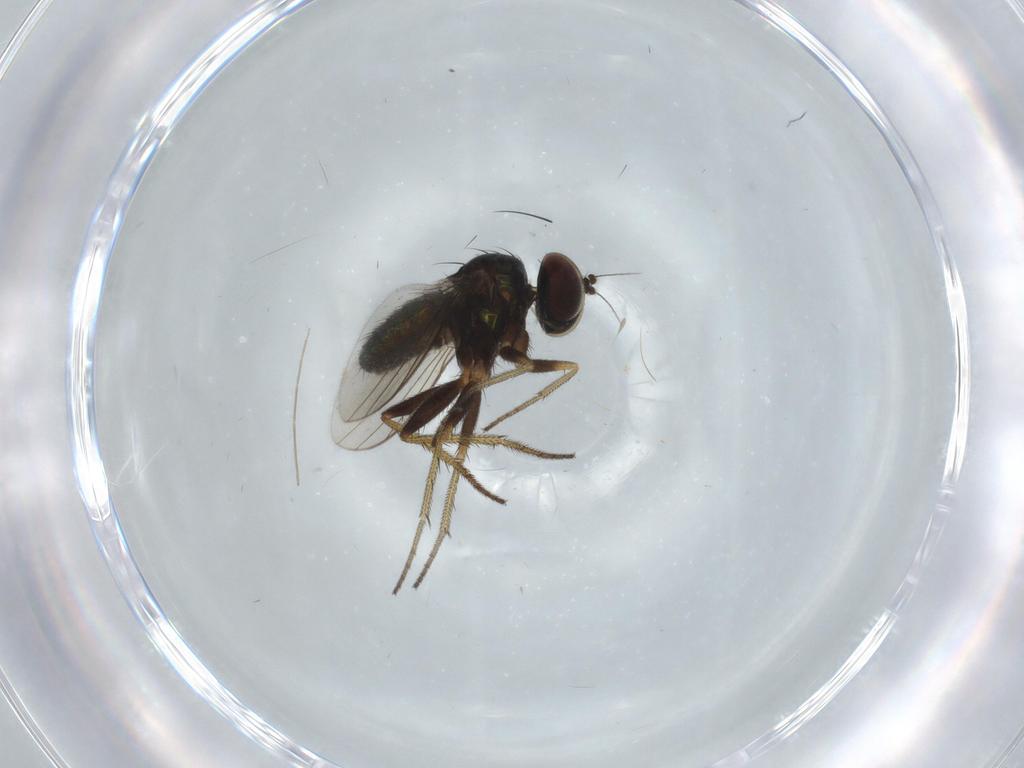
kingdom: Animalia
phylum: Arthropoda
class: Insecta
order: Diptera
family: Chironomidae
